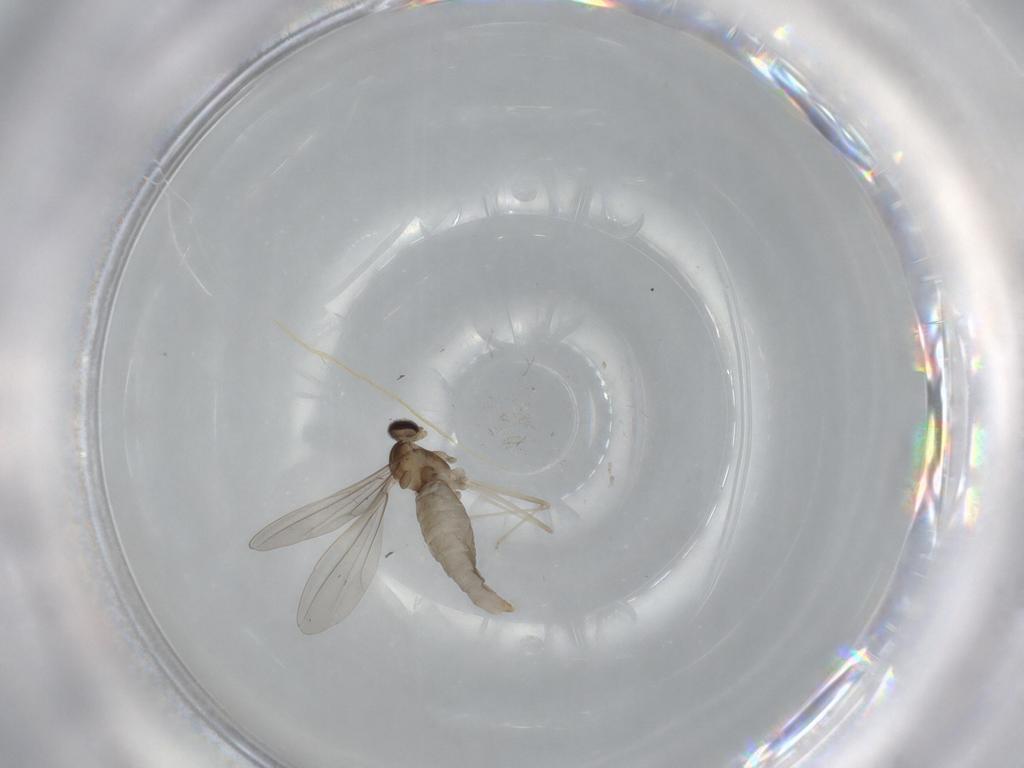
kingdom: Animalia
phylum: Arthropoda
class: Insecta
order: Diptera
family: Cecidomyiidae
